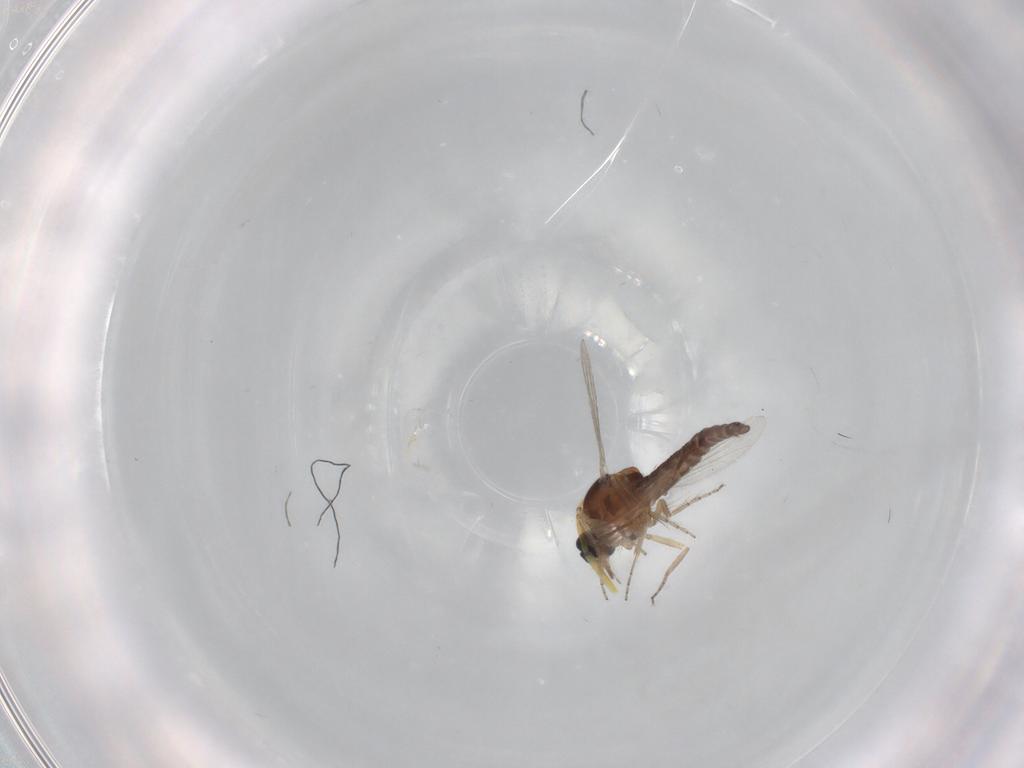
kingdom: Animalia
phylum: Arthropoda
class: Insecta
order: Diptera
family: Ceratopogonidae
